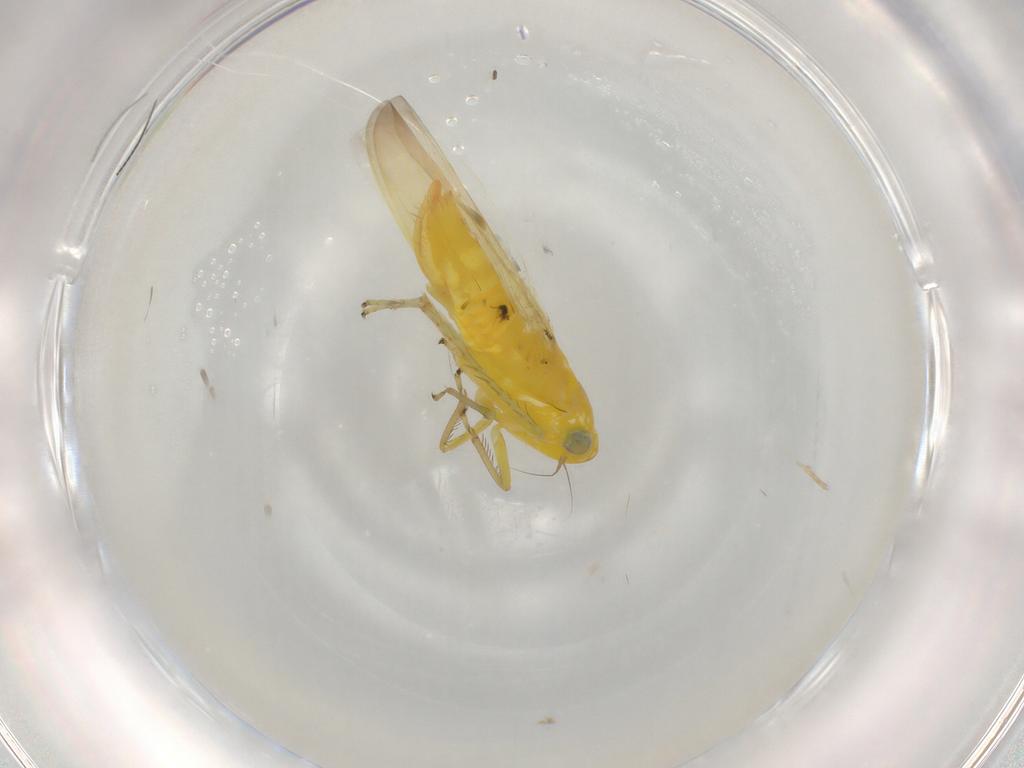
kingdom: Animalia
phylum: Arthropoda
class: Insecta
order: Hemiptera
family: Cicadellidae
